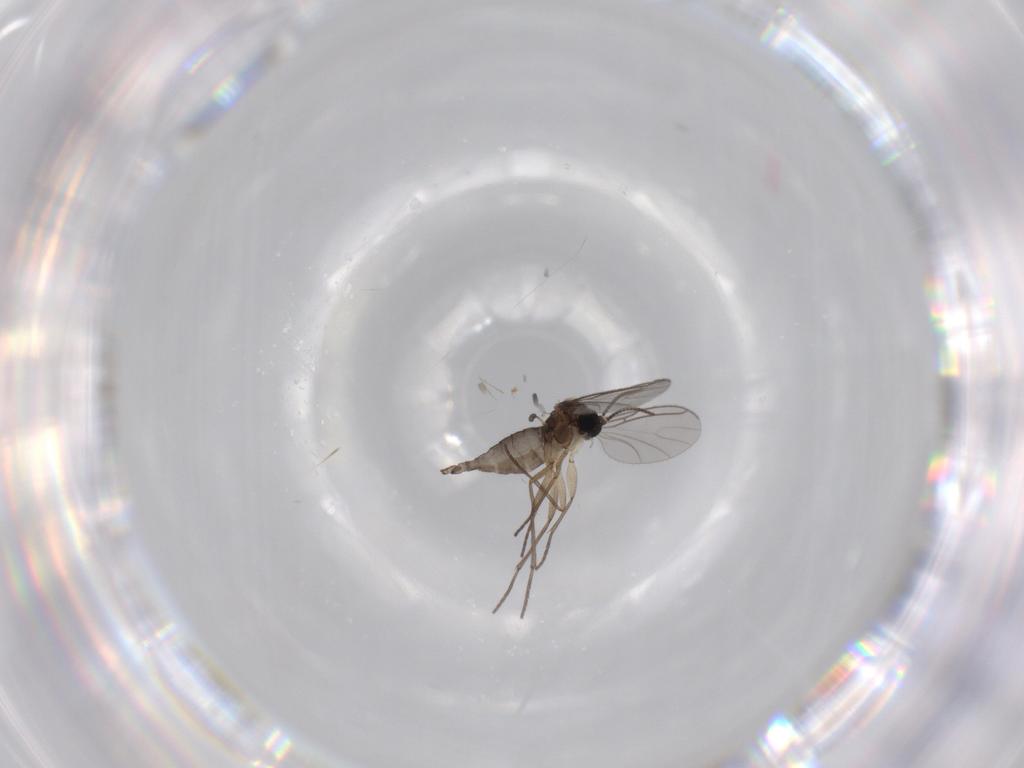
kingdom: Animalia
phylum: Arthropoda
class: Insecta
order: Diptera
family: Sciaridae
